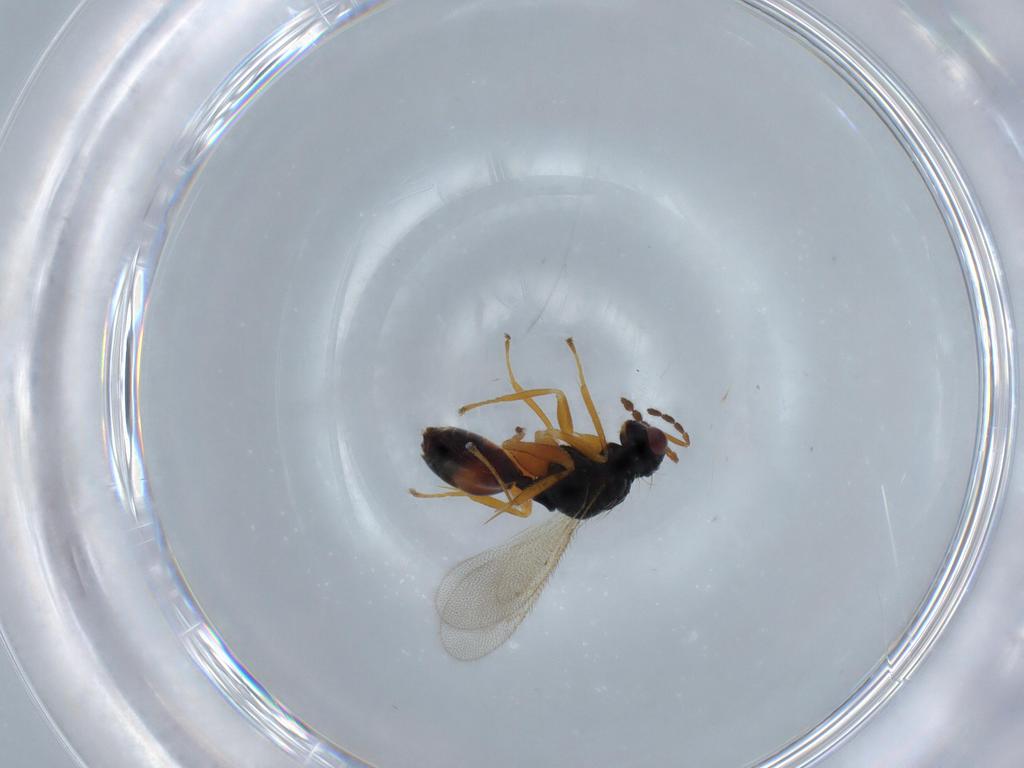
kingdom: Animalia
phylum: Arthropoda
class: Insecta
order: Hymenoptera
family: Eulophidae
